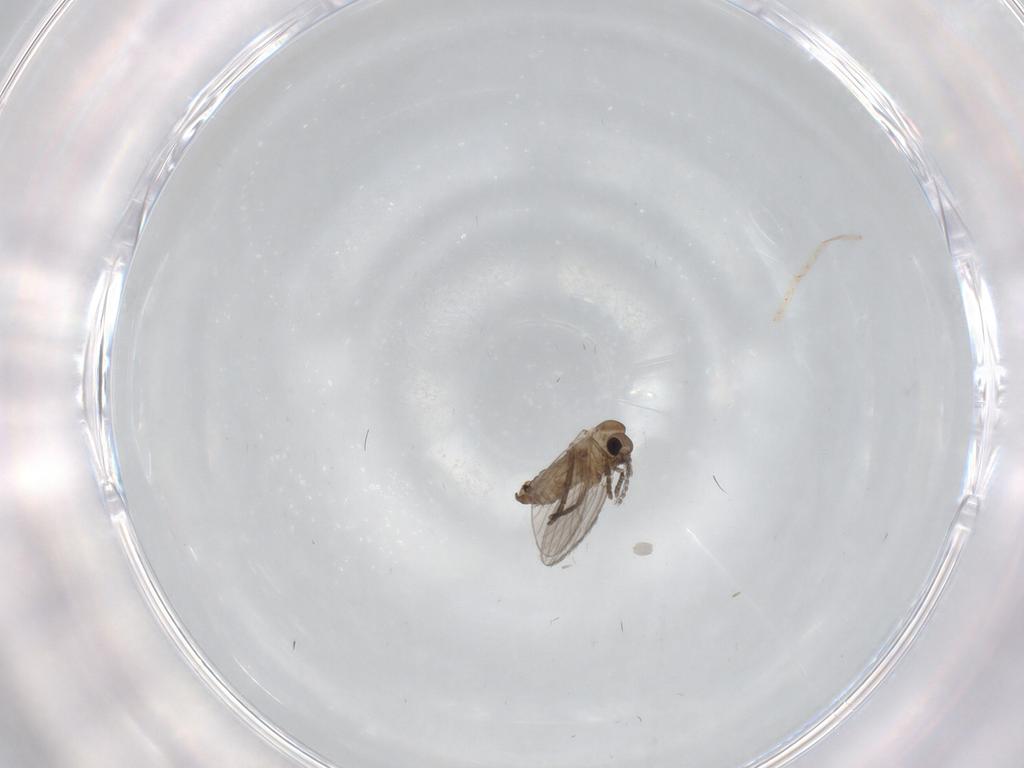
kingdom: Animalia
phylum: Arthropoda
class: Insecta
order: Diptera
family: Psychodidae
